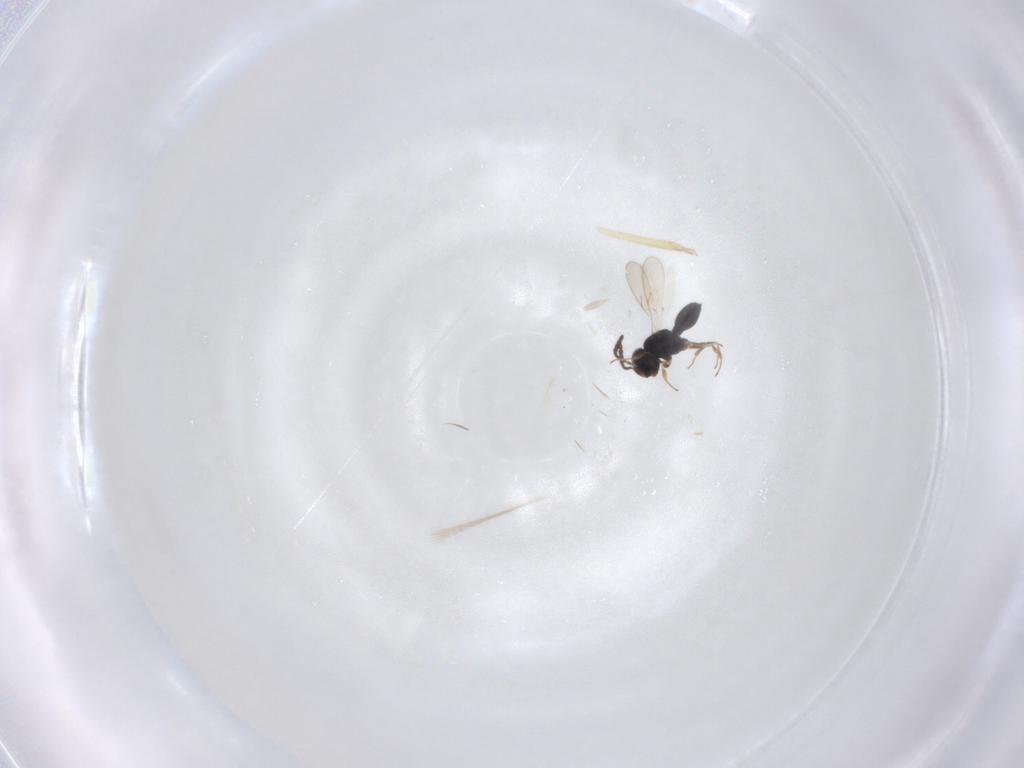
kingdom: Animalia
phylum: Arthropoda
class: Insecta
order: Hymenoptera
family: Scelionidae
